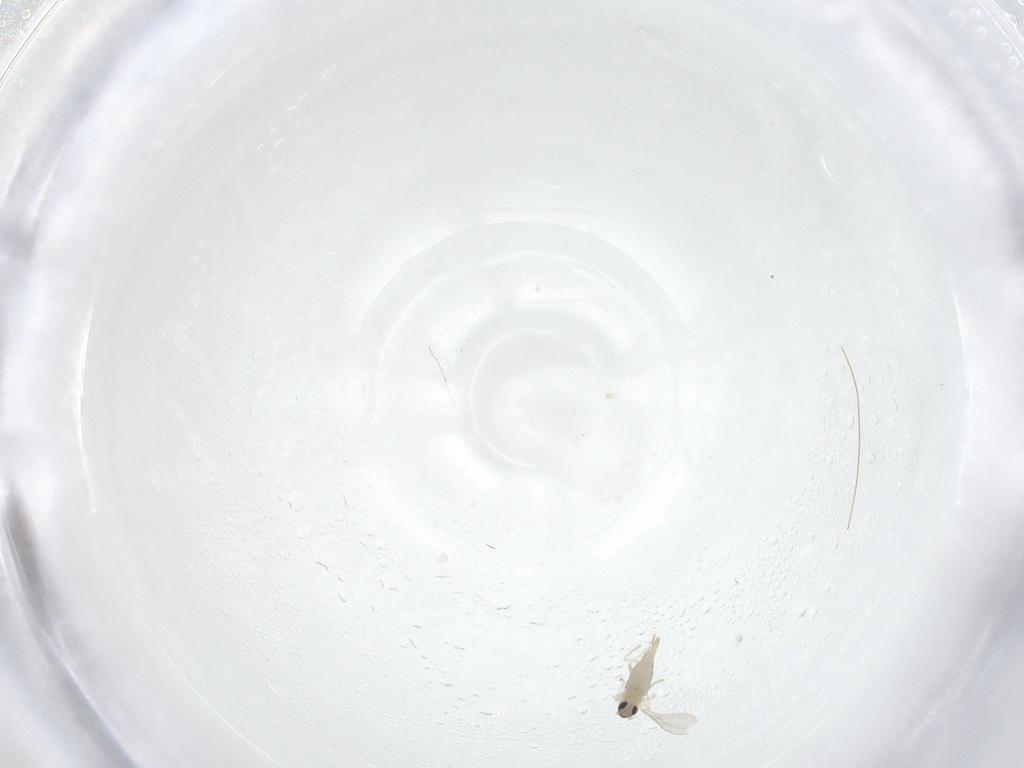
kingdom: Animalia
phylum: Arthropoda
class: Insecta
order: Diptera
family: Cecidomyiidae
